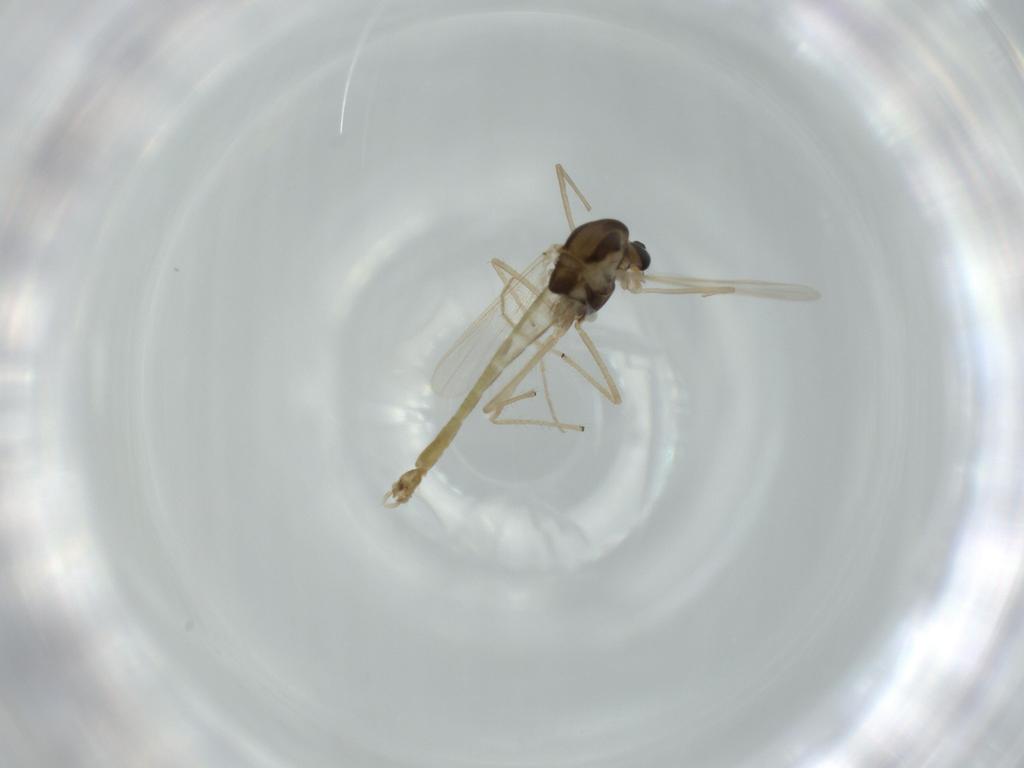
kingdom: Animalia
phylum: Arthropoda
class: Insecta
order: Diptera
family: Chironomidae
